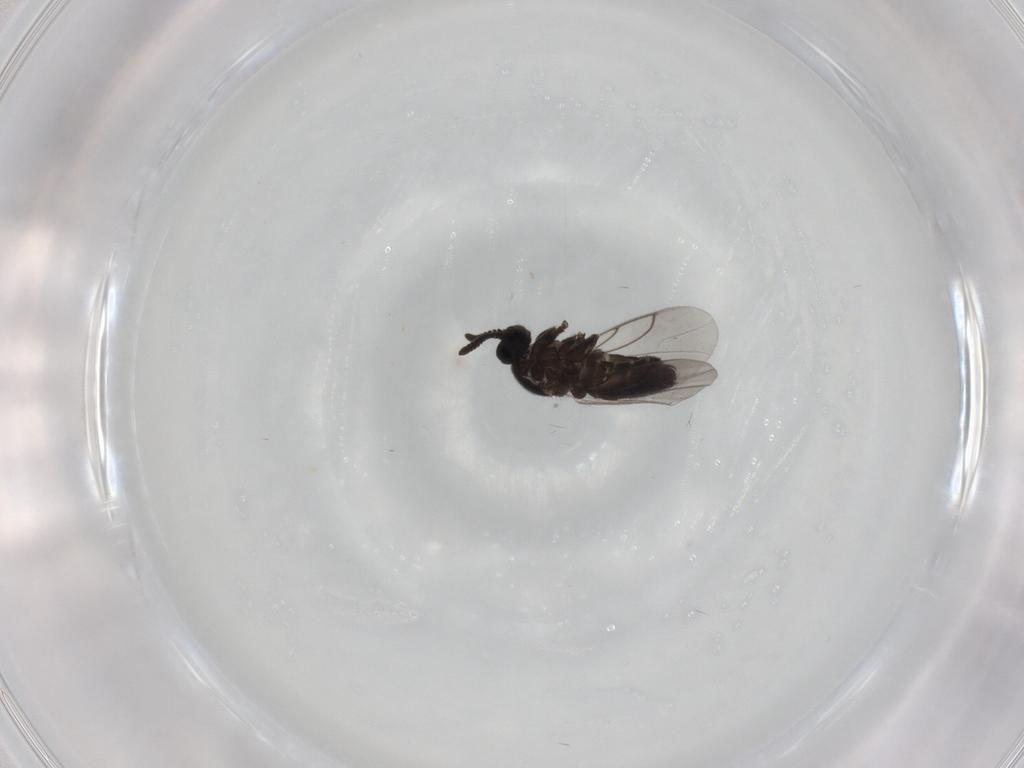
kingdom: Animalia
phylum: Arthropoda
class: Insecta
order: Diptera
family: Scatopsidae
